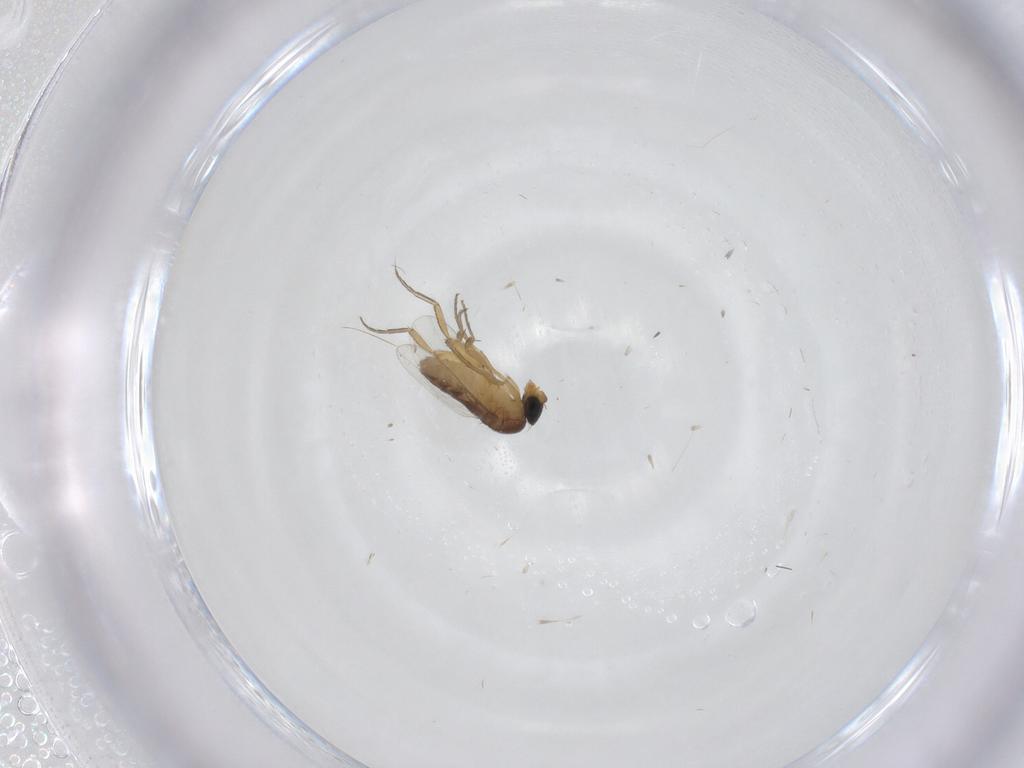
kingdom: Animalia
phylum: Arthropoda
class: Insecta
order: Diptera
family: Phoridae
